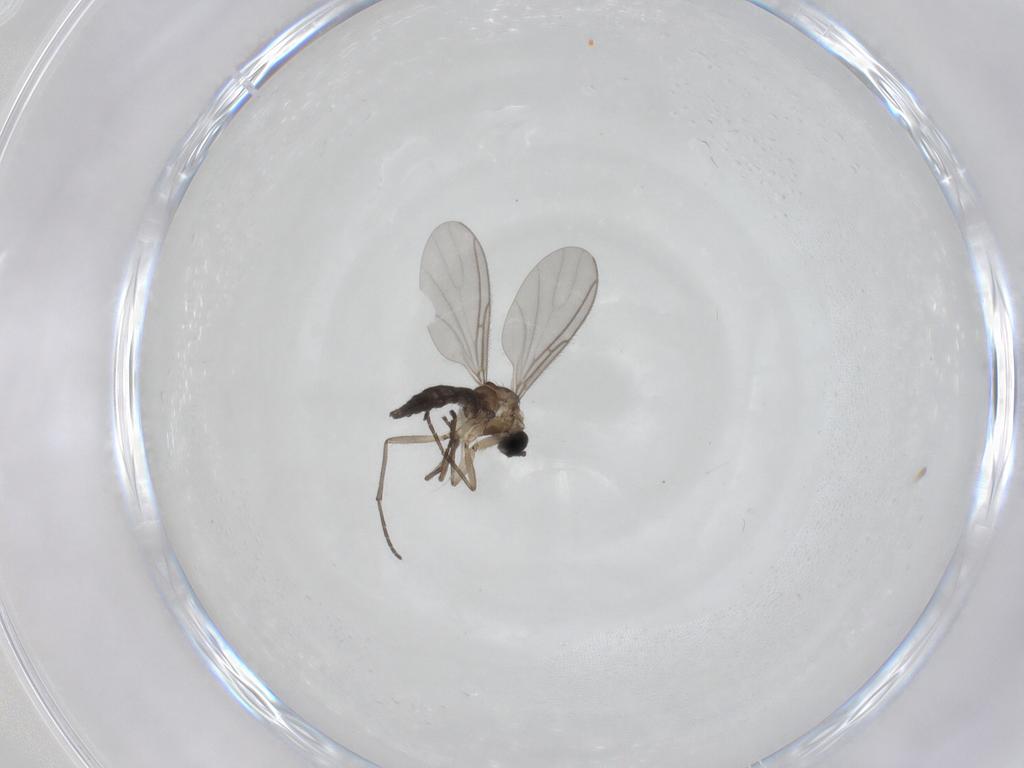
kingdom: Animalia
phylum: Arthropoda
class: Insecta
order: Diptera
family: Sciaridae
